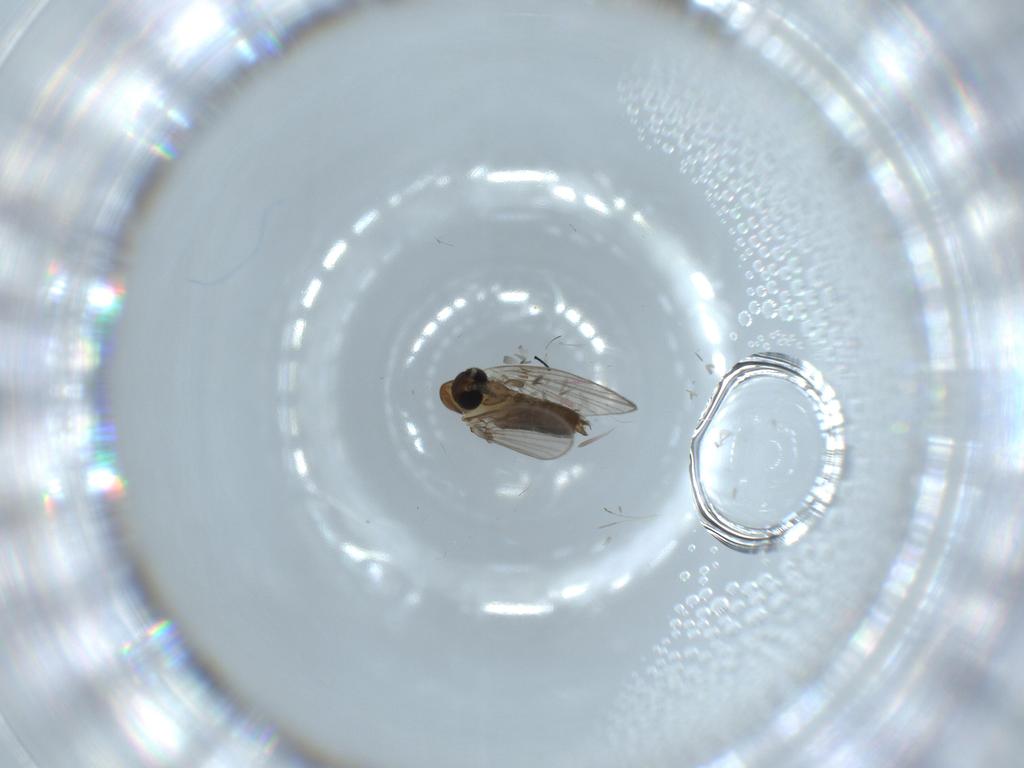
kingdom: Animalia
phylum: Arthropoda
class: Insecta
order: Diptera
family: Psychodidae
